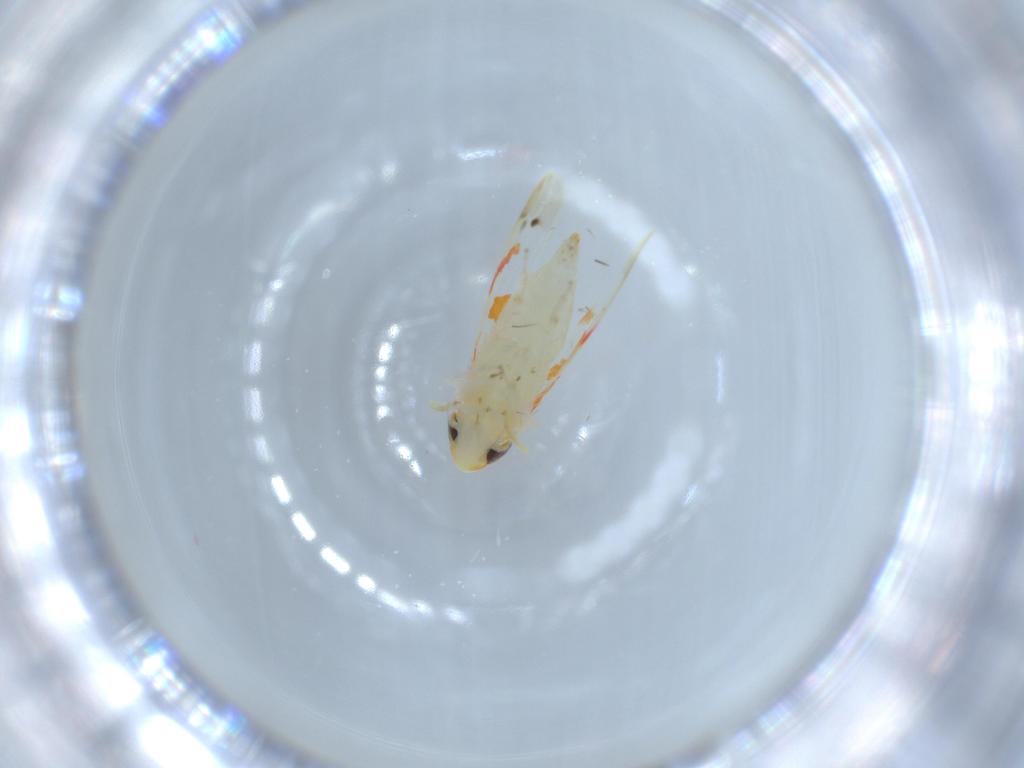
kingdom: Animalia
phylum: Arthropoda
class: Insecta
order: Hemiptera
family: Cicadellidae
